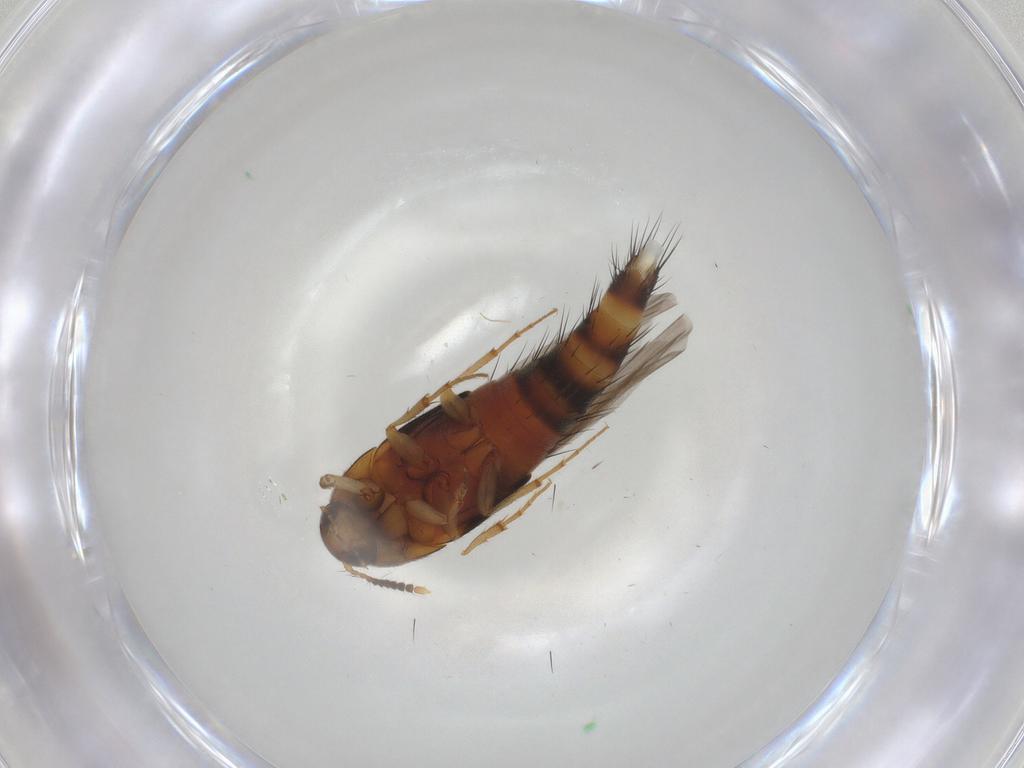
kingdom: Animalia
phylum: Arthropoda
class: Insecta
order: Coleoptera
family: Staphylinidae
